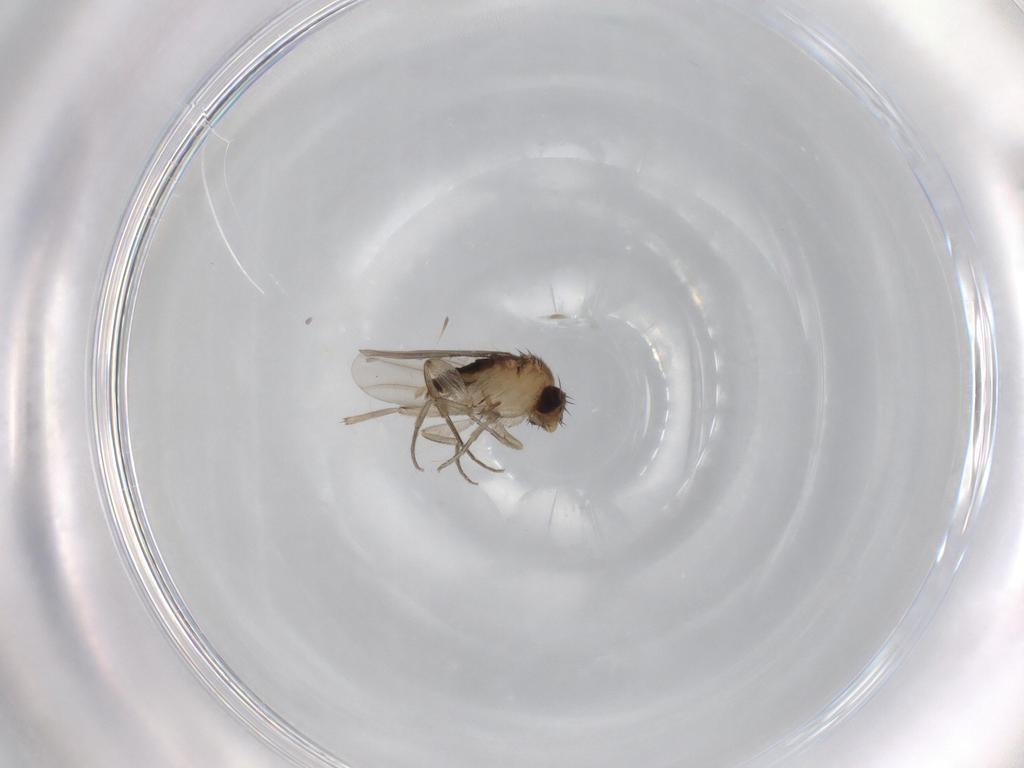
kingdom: Animalia
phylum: Arthropoda
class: Insecta
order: Diptera
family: Phoridae
